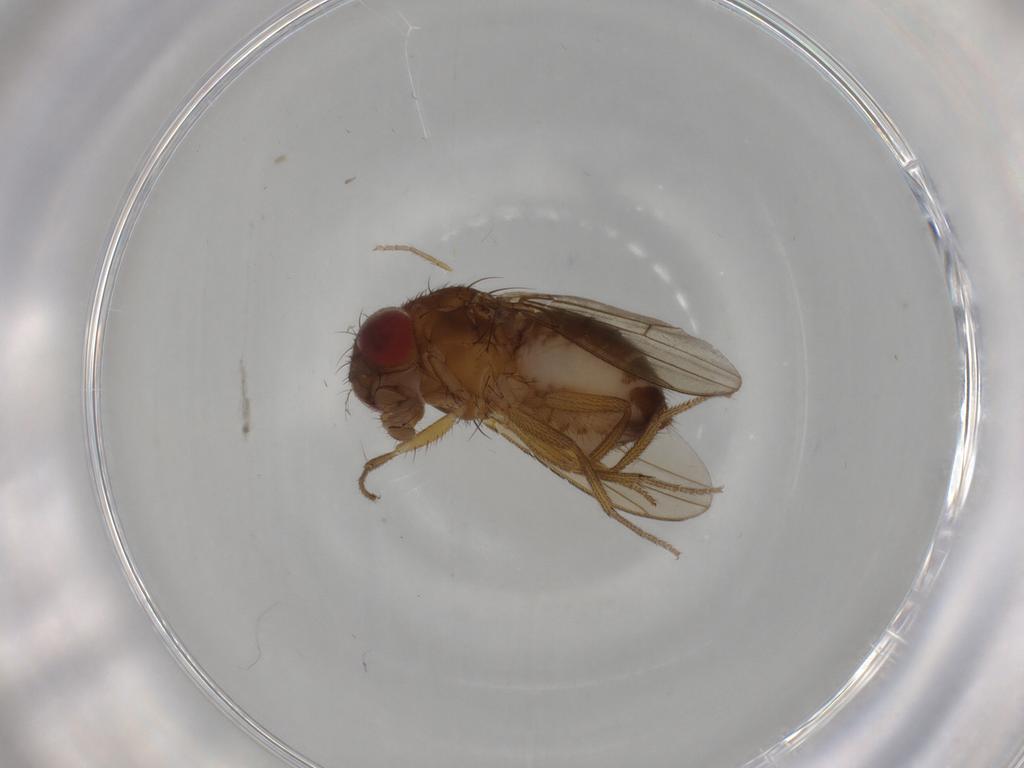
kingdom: Animalia
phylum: Arthropoda
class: Insecta
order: Diptera
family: Drosophilidae
